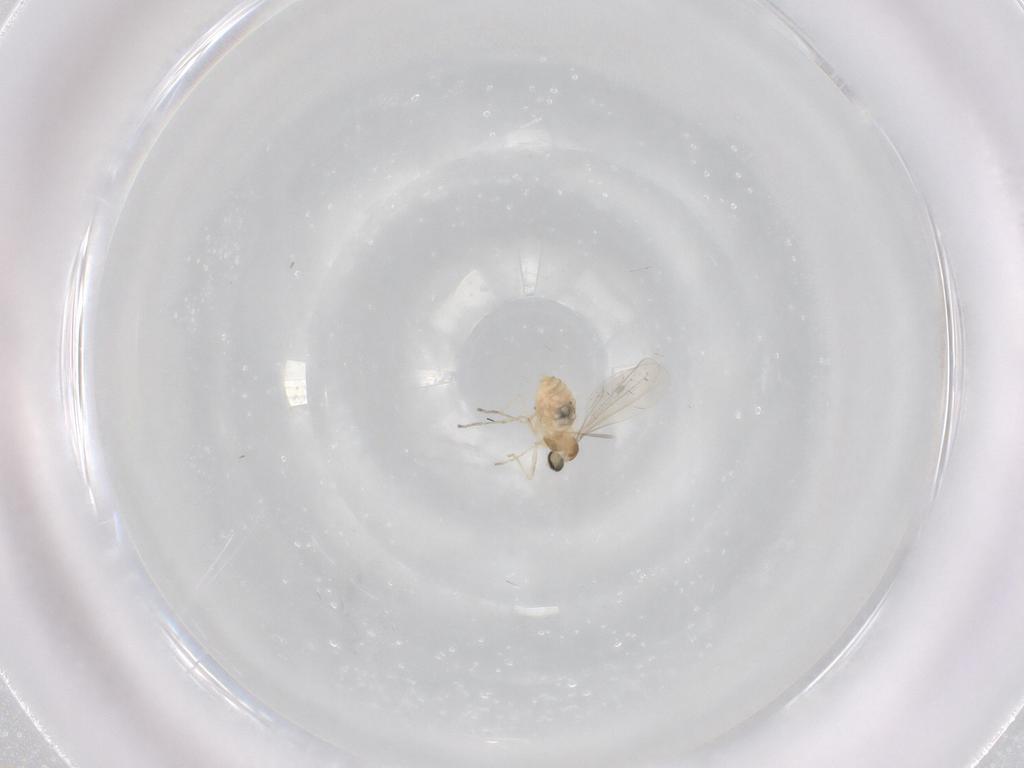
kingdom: Animalia
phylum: Arthropoda
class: Insecta
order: Diptera
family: Cecidomyiidae
